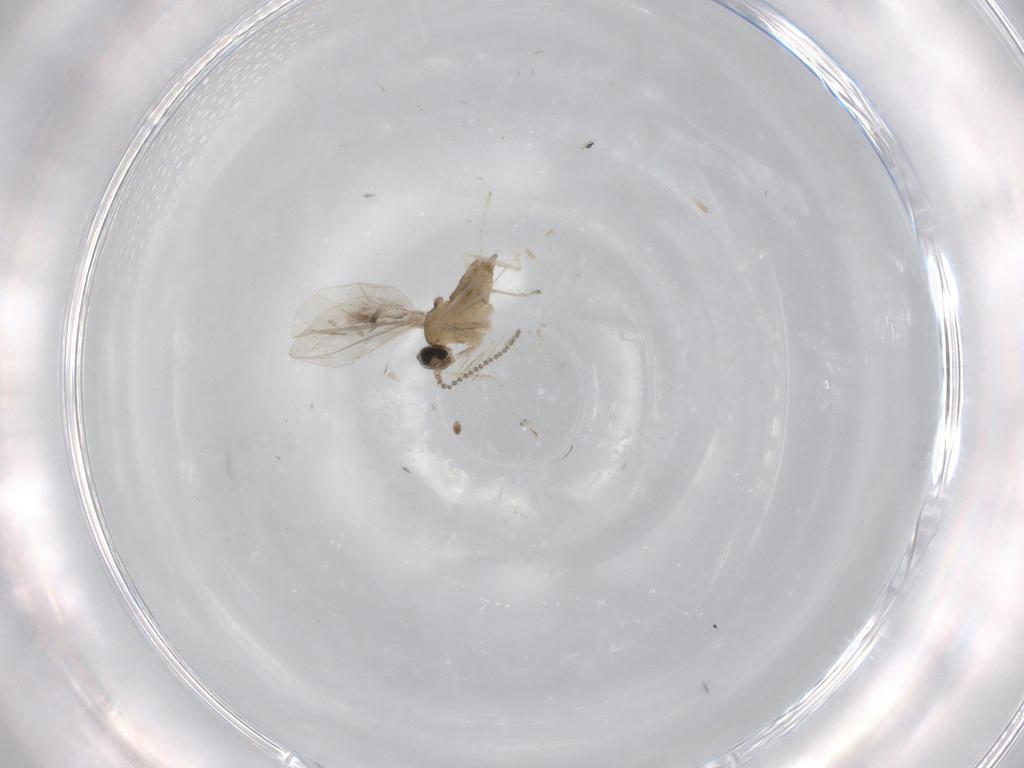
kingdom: Animalia
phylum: Arthropoda
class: Insecta
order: Diptera
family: Cecidomyiidae
